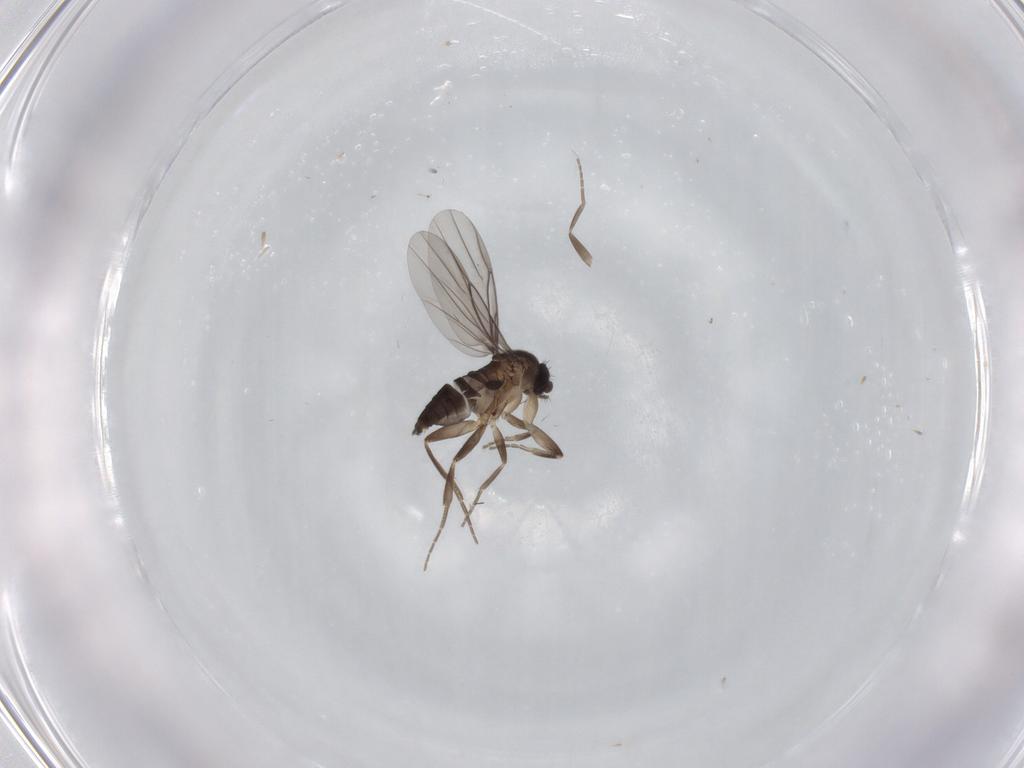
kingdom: Animalia
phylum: Arthropoda
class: Insecta
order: Diptera
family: Phoridae
